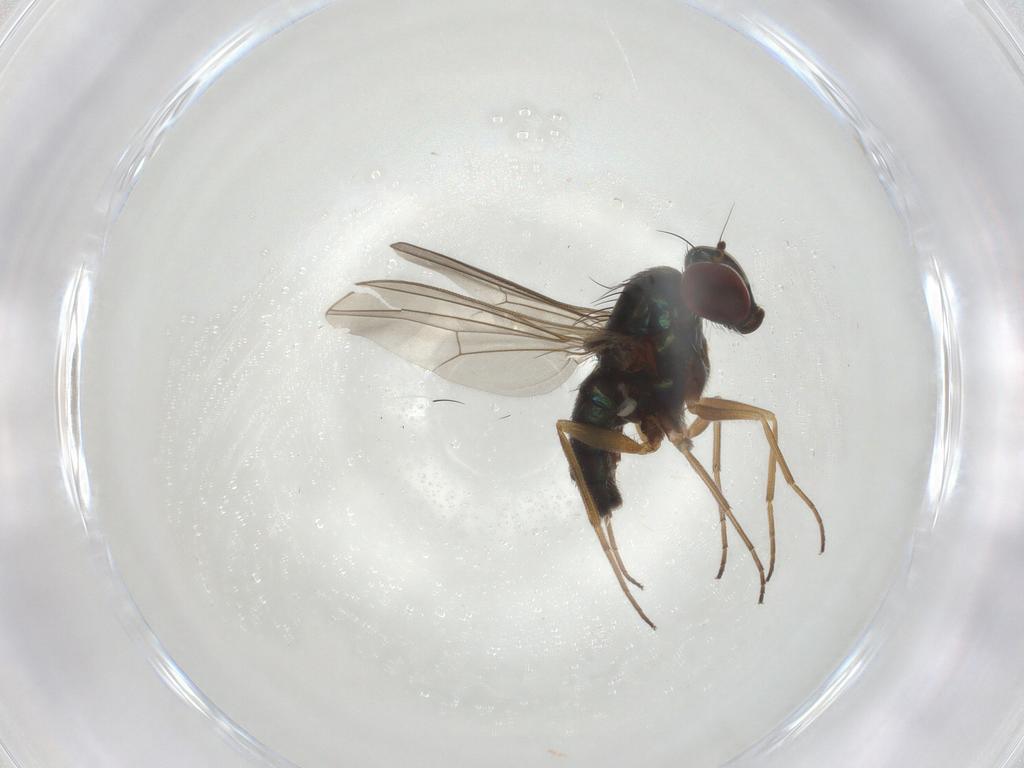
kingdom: Animalia
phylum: Arthropoda
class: Insecta
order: Diptera
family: Dolichopodidae
